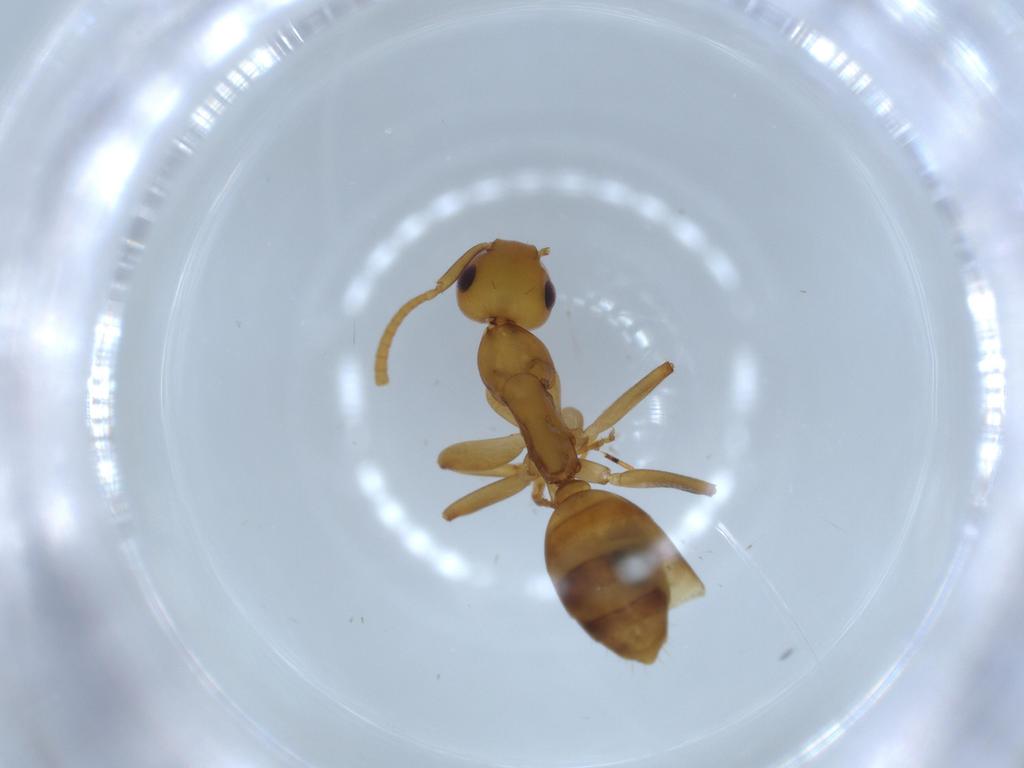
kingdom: Animalia
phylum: Arthropoda
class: Insecta
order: Hymenoptera
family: Formicidae
